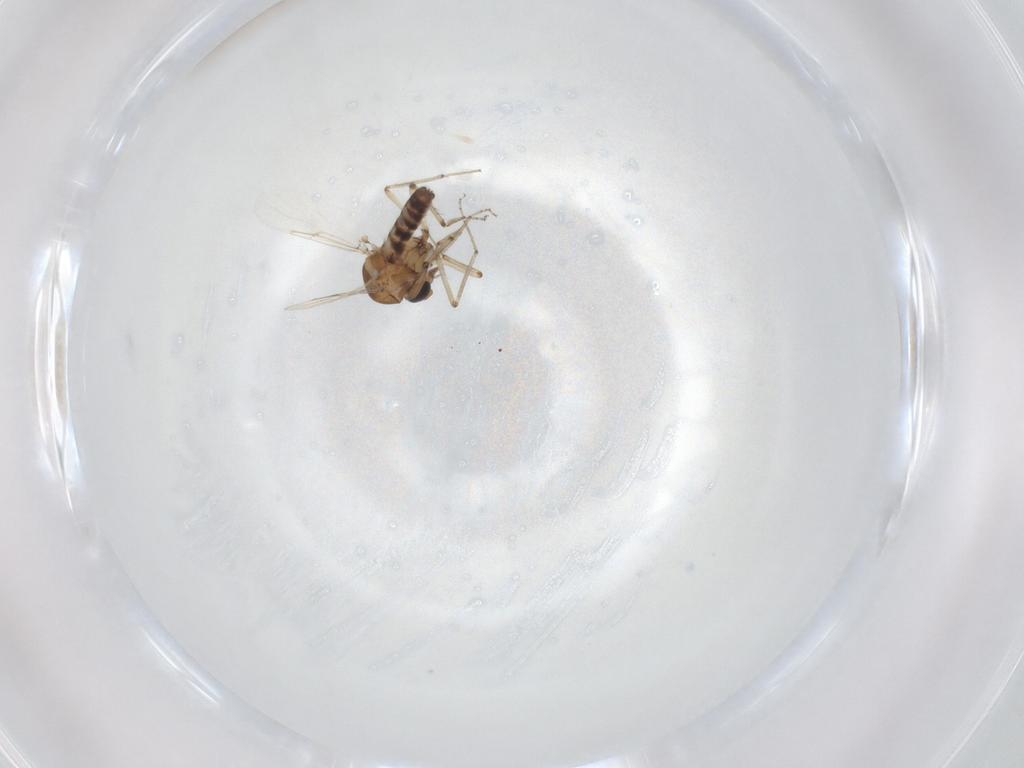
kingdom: Animalia
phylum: Arthropoda
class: Insecta
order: Diptera
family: Ceratopogonidae
